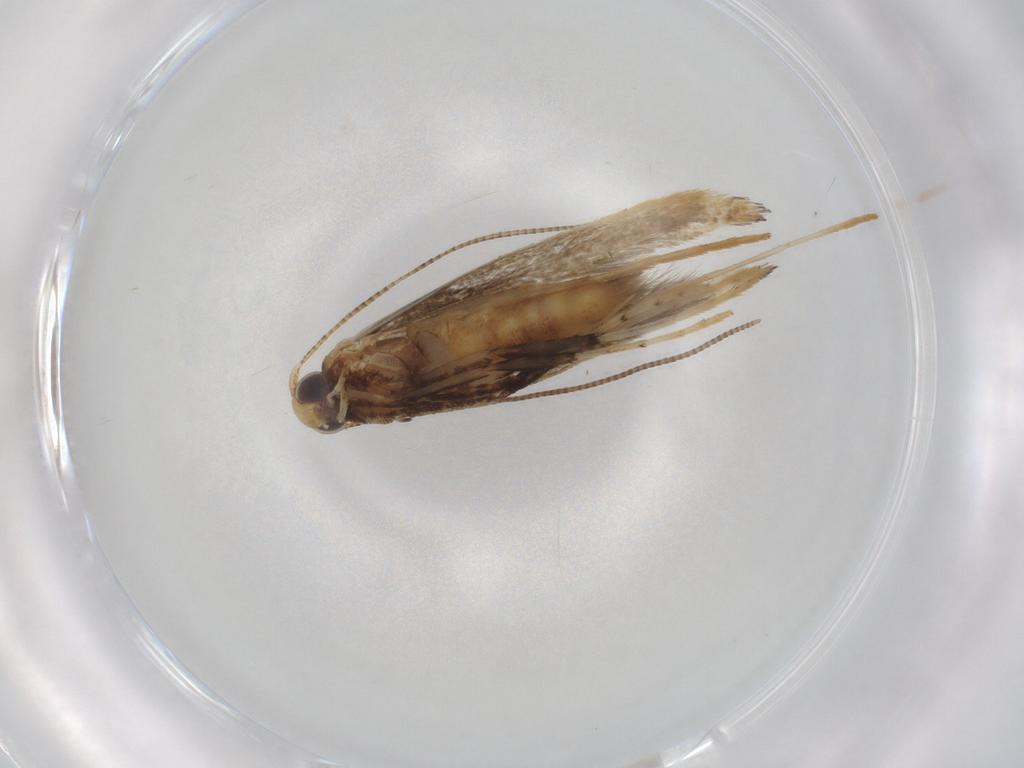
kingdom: Animalia
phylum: Arthropoda
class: Insecta
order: Lepidoptera
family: Gracillariidae
